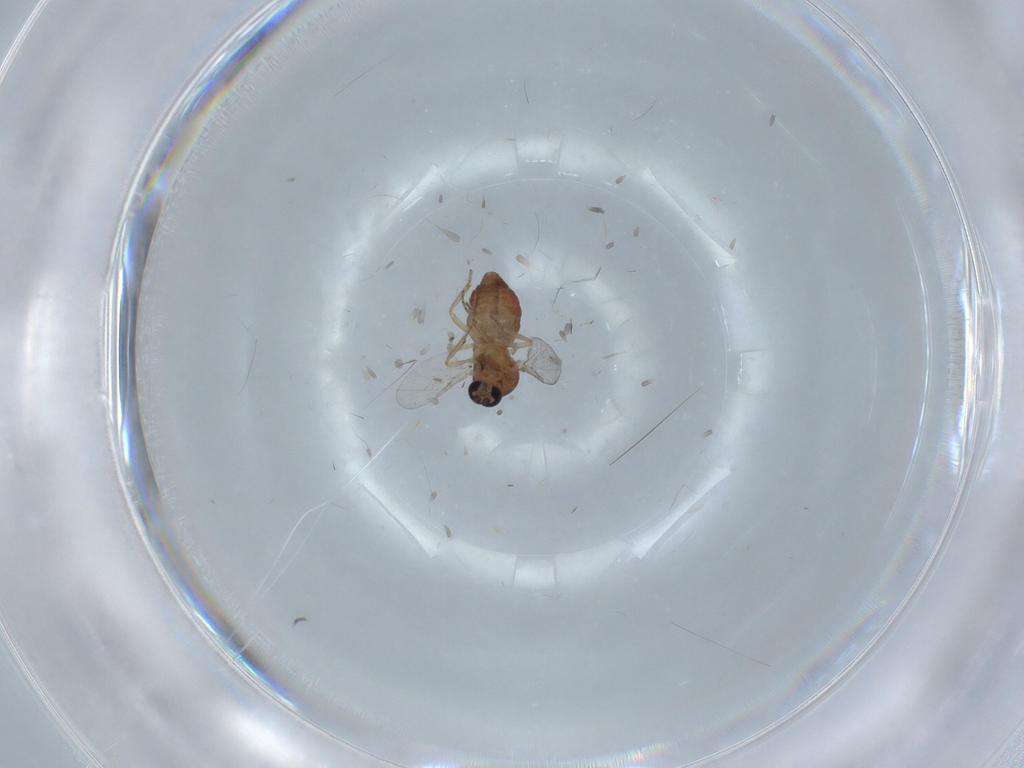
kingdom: Animalia
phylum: Arthropoda
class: Insecta
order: Diptera
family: Ceratopogonidae
